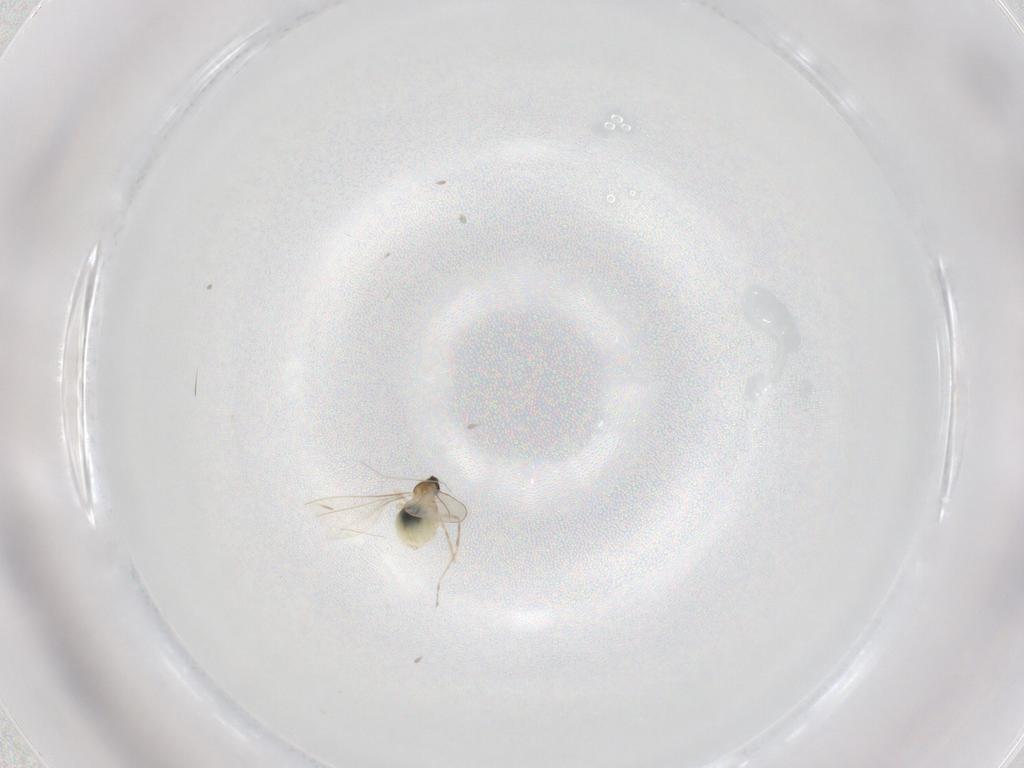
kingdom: Animalia
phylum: Arthropoda
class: Insecta
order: Diptera
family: Cecidomyiidae
